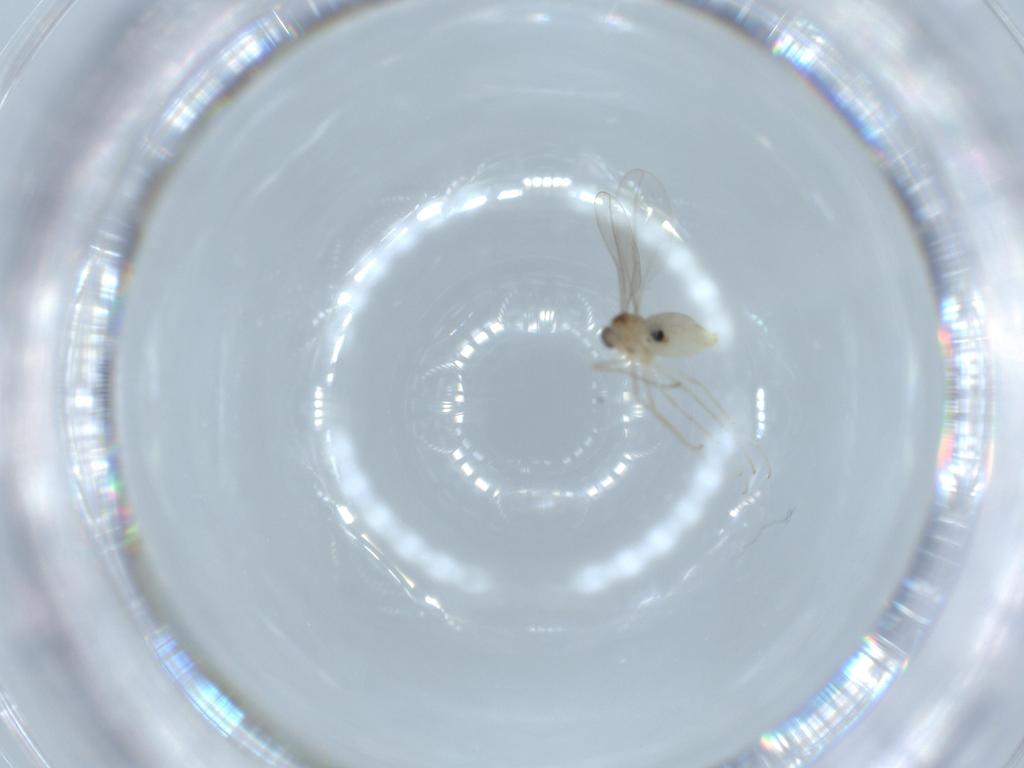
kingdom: Animalia
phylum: Arthropoda
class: Insecta
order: Diptera
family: Cecidomyiidae
